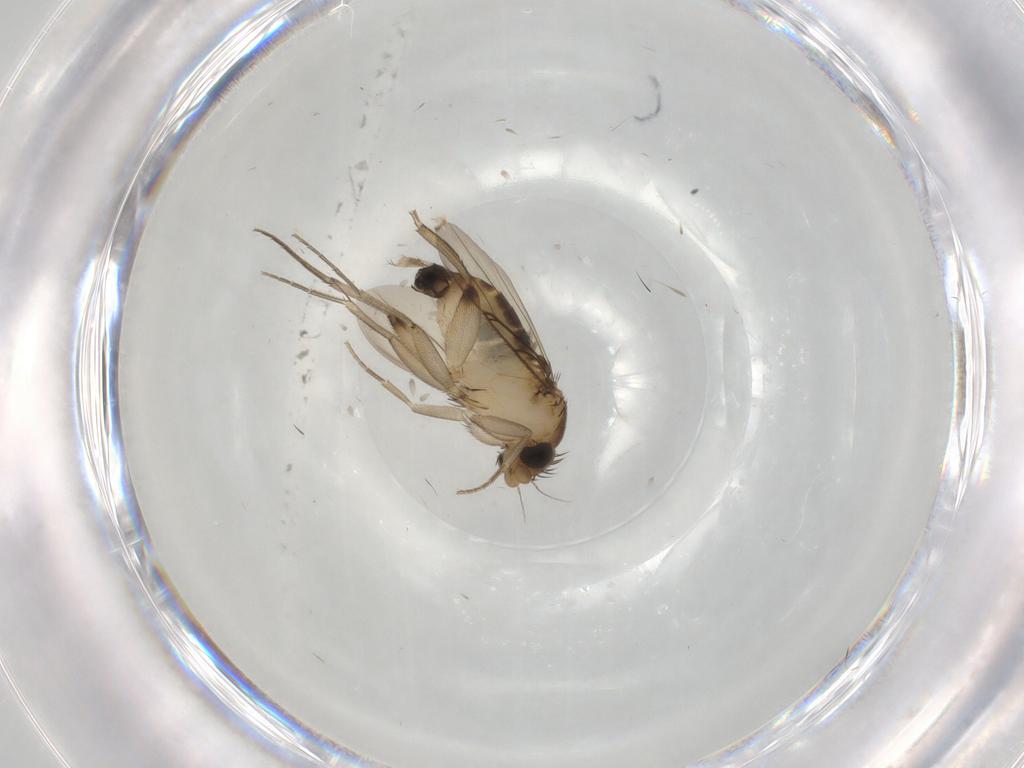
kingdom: Animalia
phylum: Arthropoda
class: Insecta
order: Diptera
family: Phoridae
